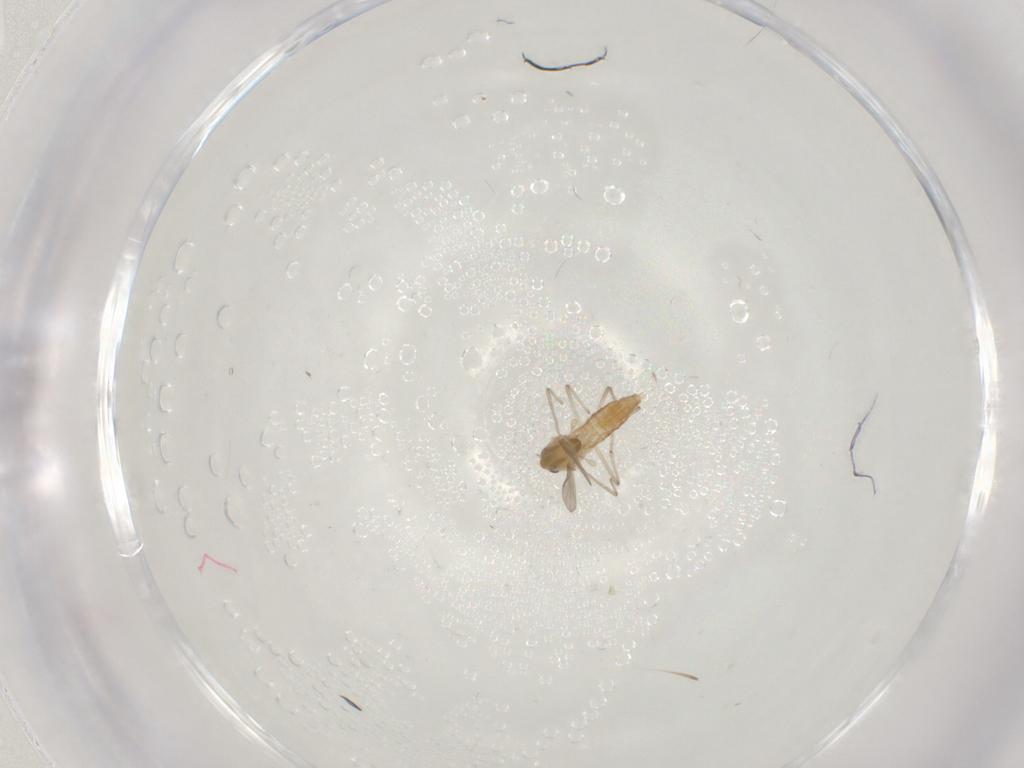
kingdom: Animalia
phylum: Arthropoda
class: Insecta
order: Diptera
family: Chironomidae
